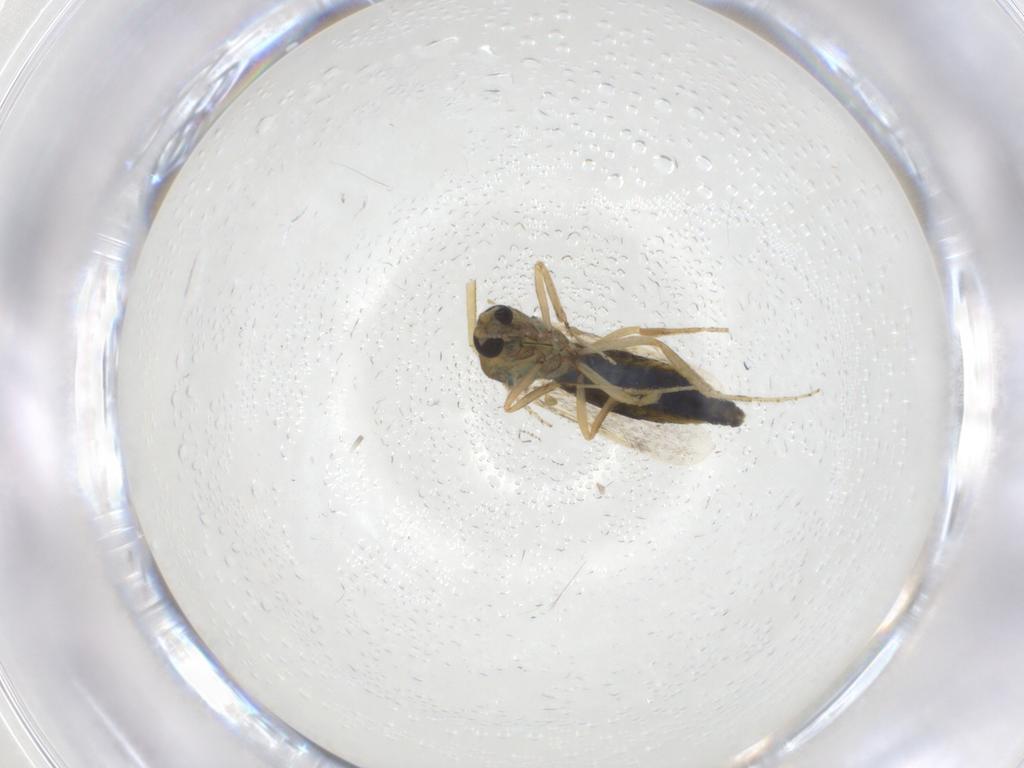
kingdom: Animalia
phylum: Arthropoda
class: Insecta
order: Diptera
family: Ceratopogonidae
